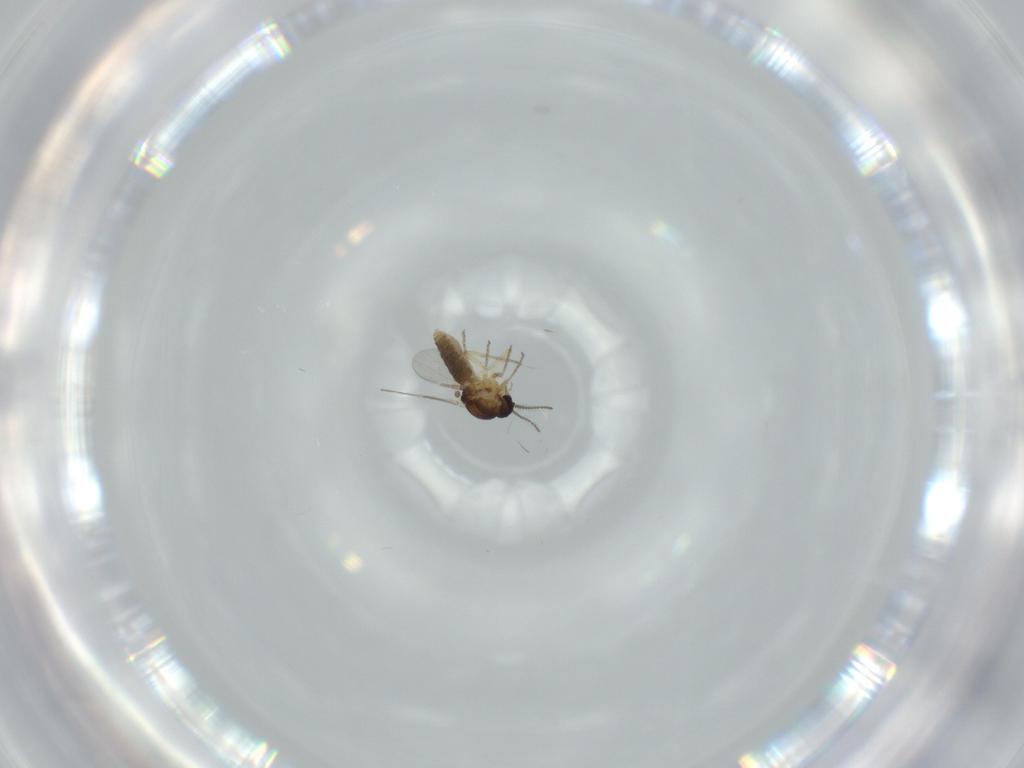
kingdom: Animalia
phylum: Arthropoda
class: Insecta
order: Diptera
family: Ceratopogonidae
